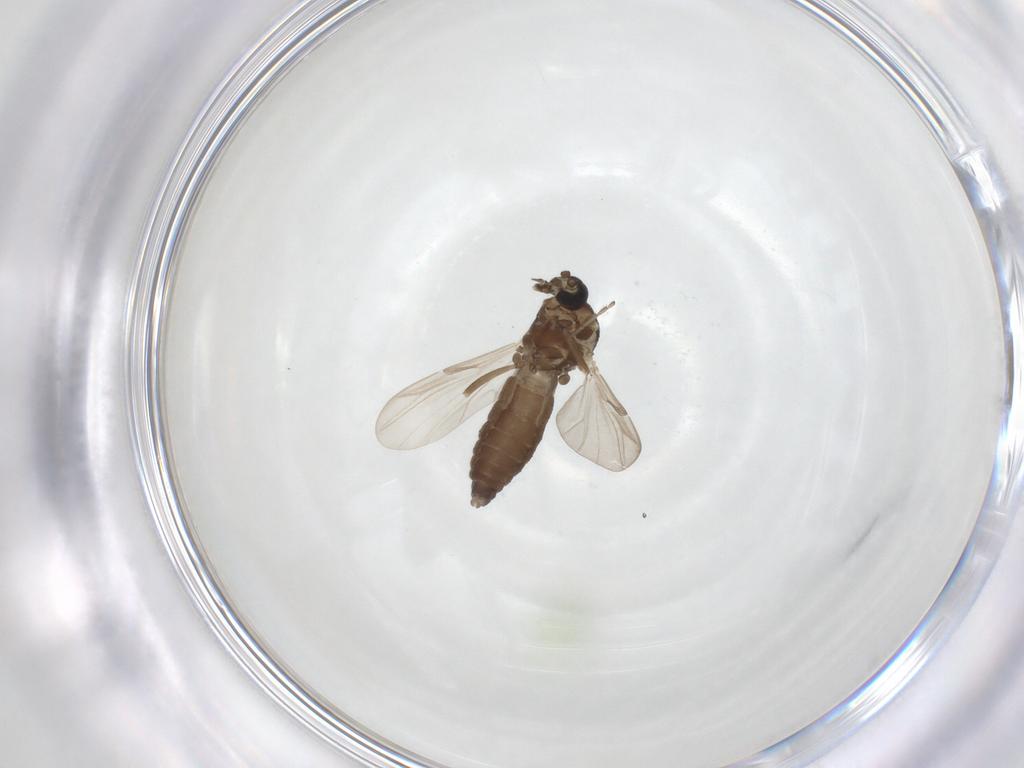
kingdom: Animalia
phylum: Arthropoda
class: Insecta
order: Diptera
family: Ceratopogonidae
